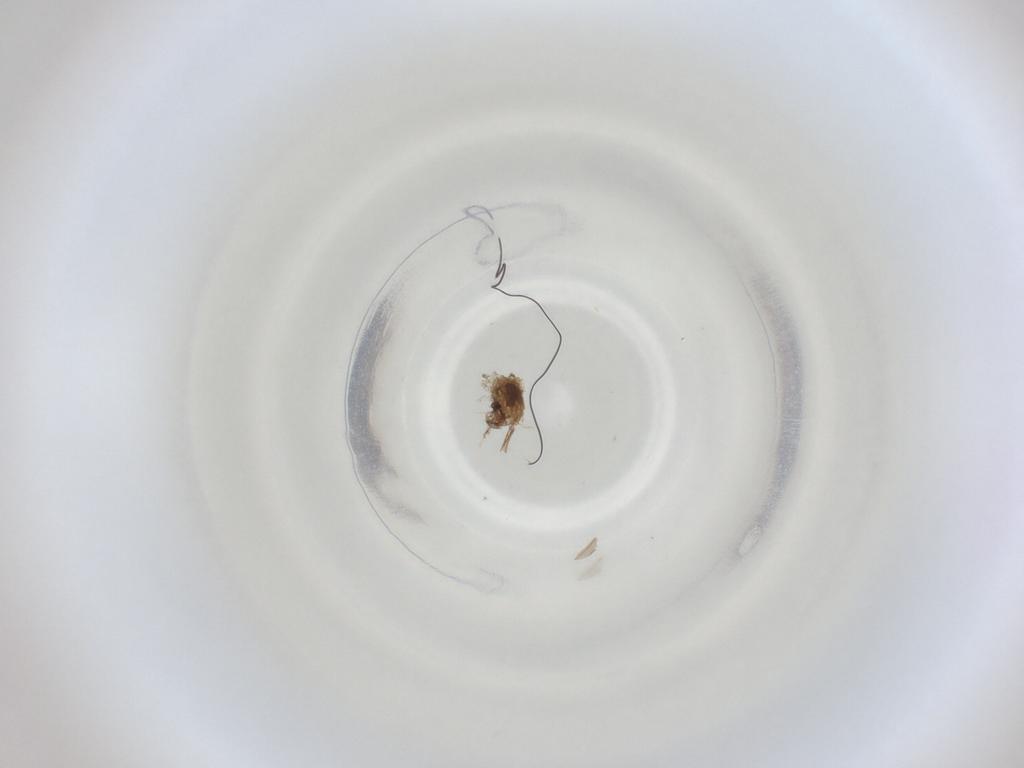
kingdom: Animalia
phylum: Arthropoda
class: Insecta
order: Diptera
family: Cecidomyiidae
